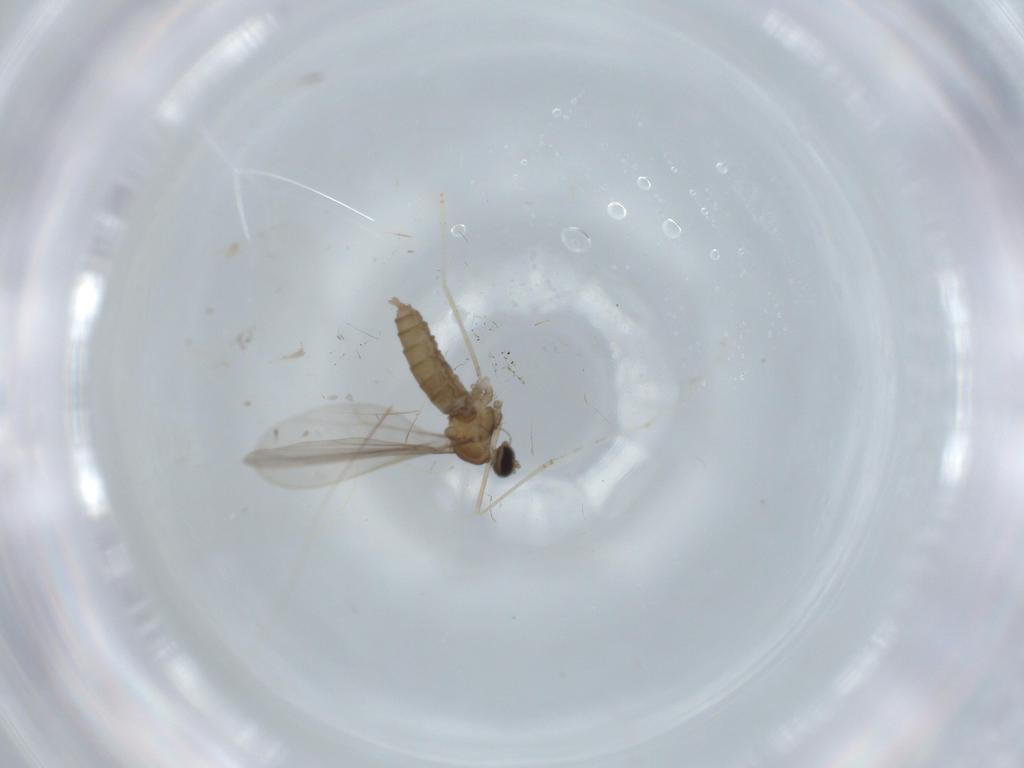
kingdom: Animalia
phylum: Arthropoda
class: Insecta
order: Diptera
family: Cecidomyiidae
